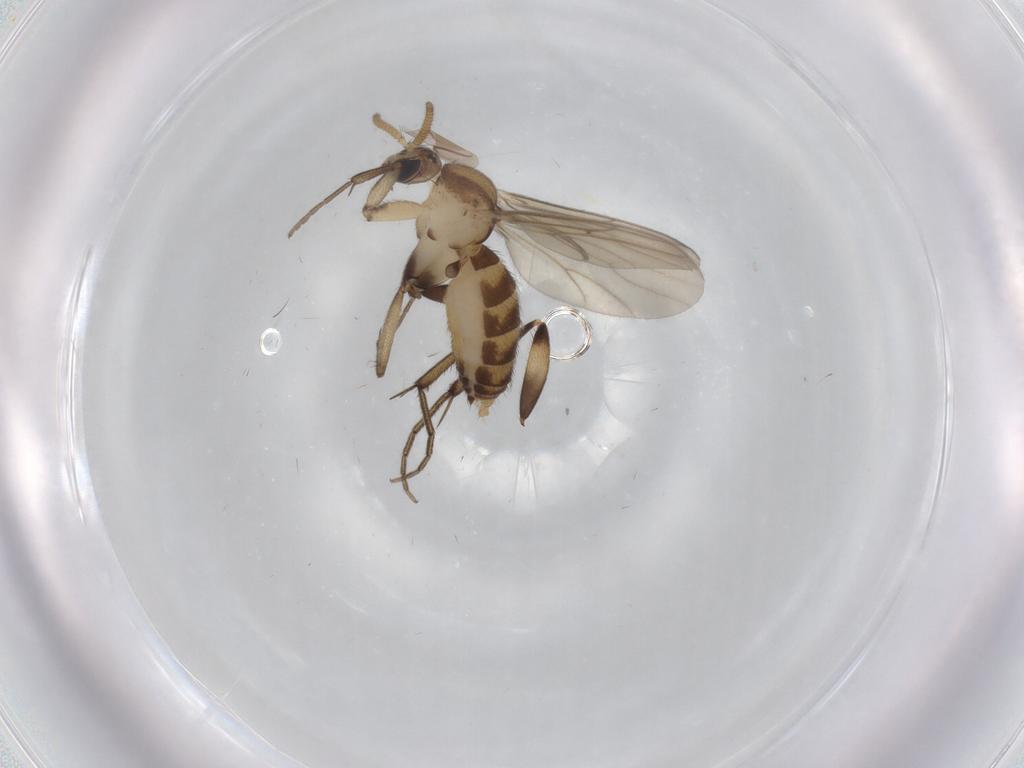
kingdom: Animalia
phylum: Arthropoda
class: Insecta
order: Diptera
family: Mycetophilidae
